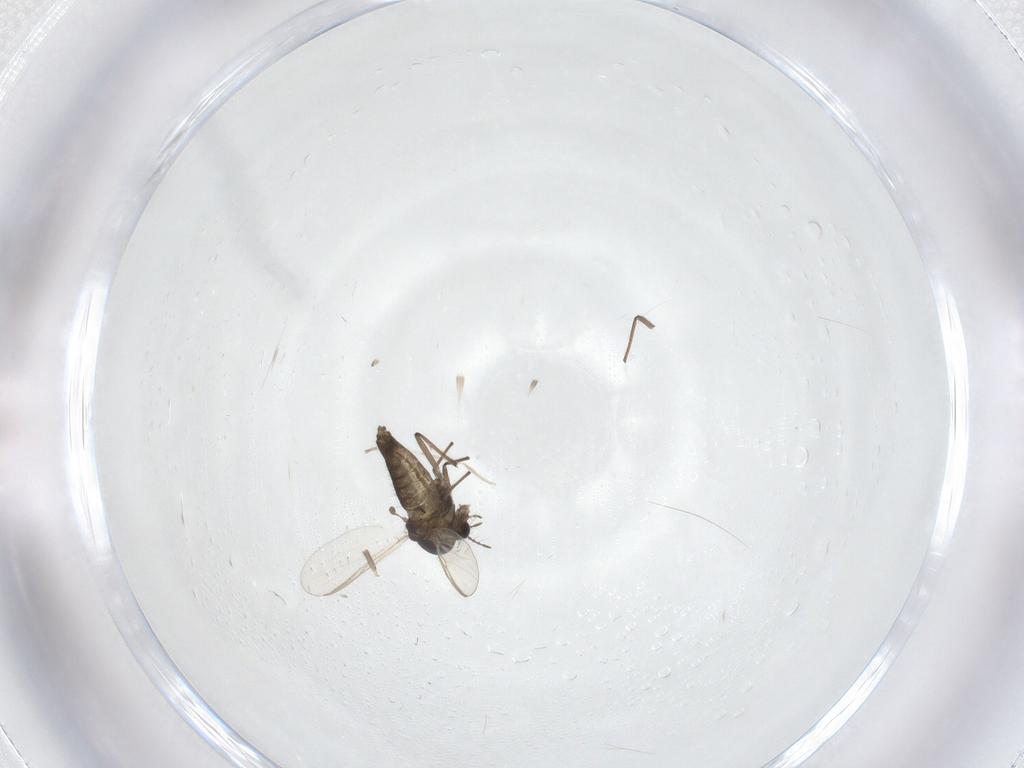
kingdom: Animalia
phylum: Arthropoda
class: Insecta
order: Diptera
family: Chironomidae
